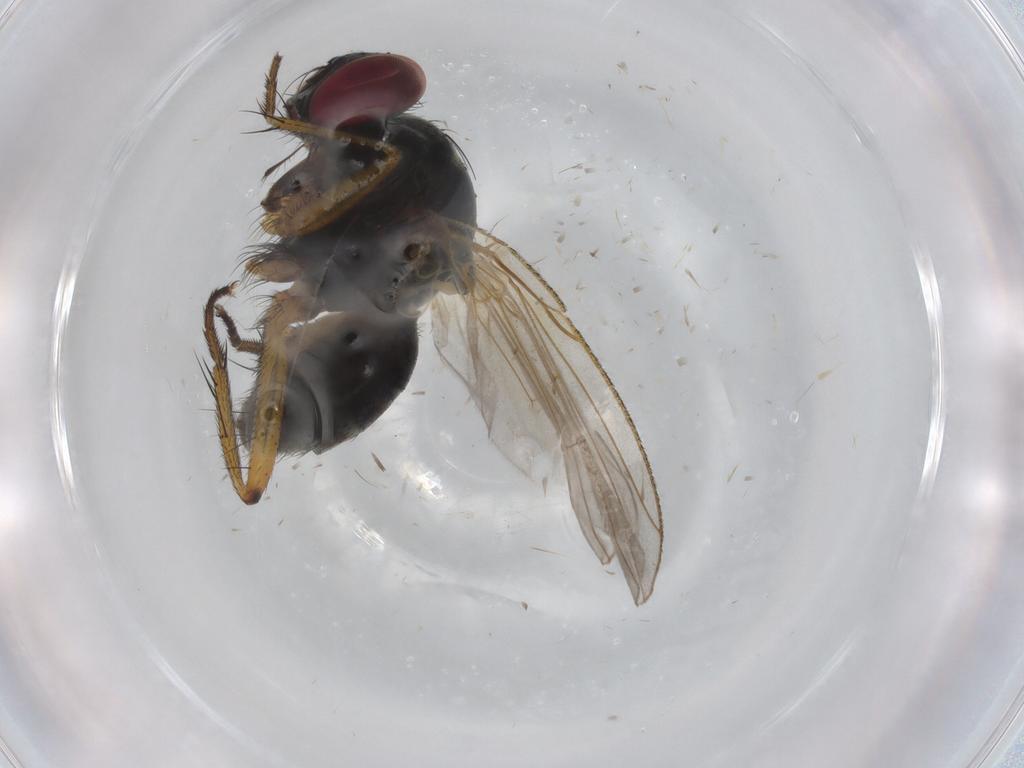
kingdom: Animalia
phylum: Arthropoda
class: Insecta
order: Diptera
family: Muscidae
